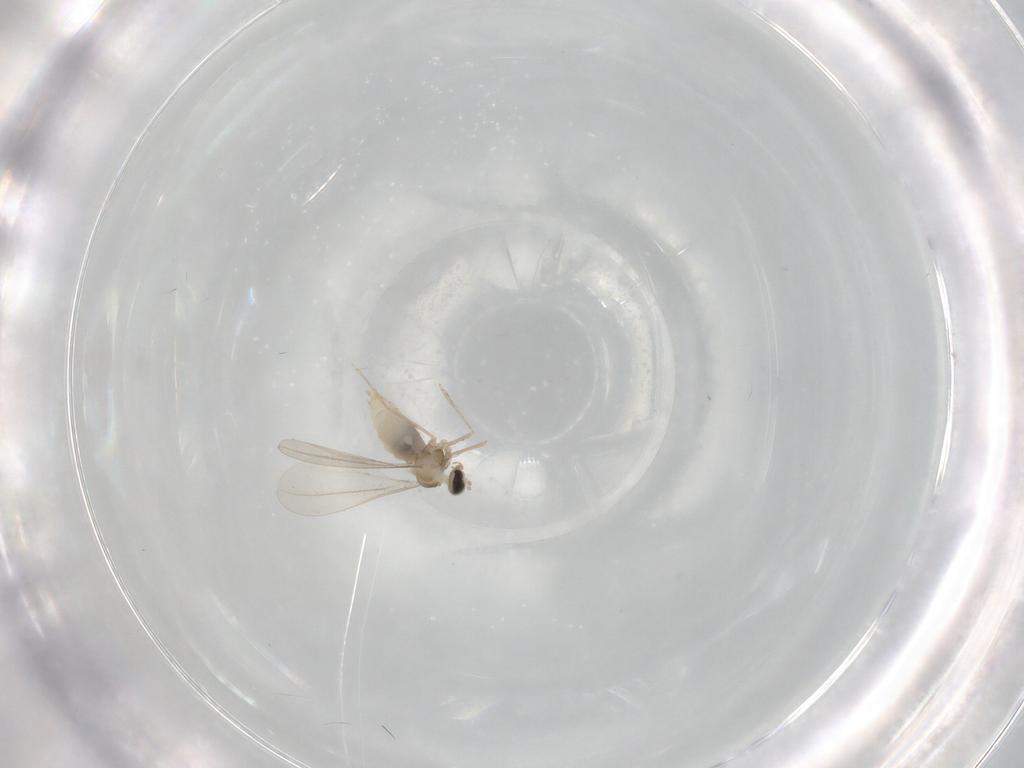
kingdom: Animalia
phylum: Arthropoda
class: Insecta
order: Diptera
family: Cecidomyiidae
